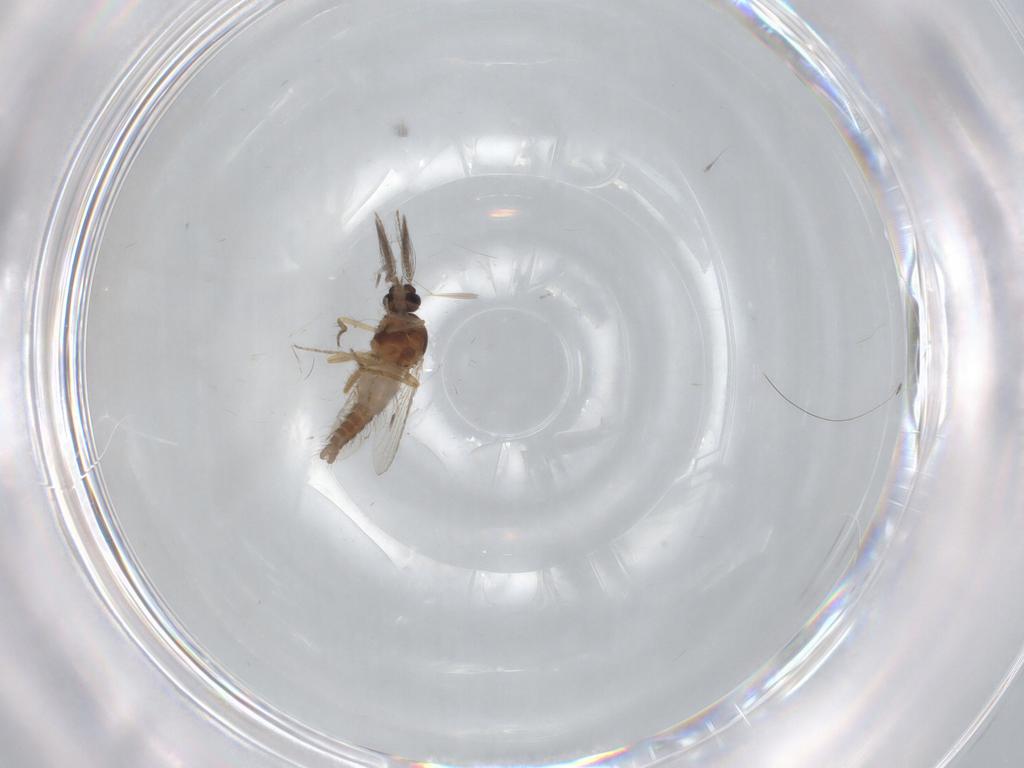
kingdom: Animalia
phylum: Arthropoda
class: Insecta
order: Diptera
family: Ceratopogonidae
